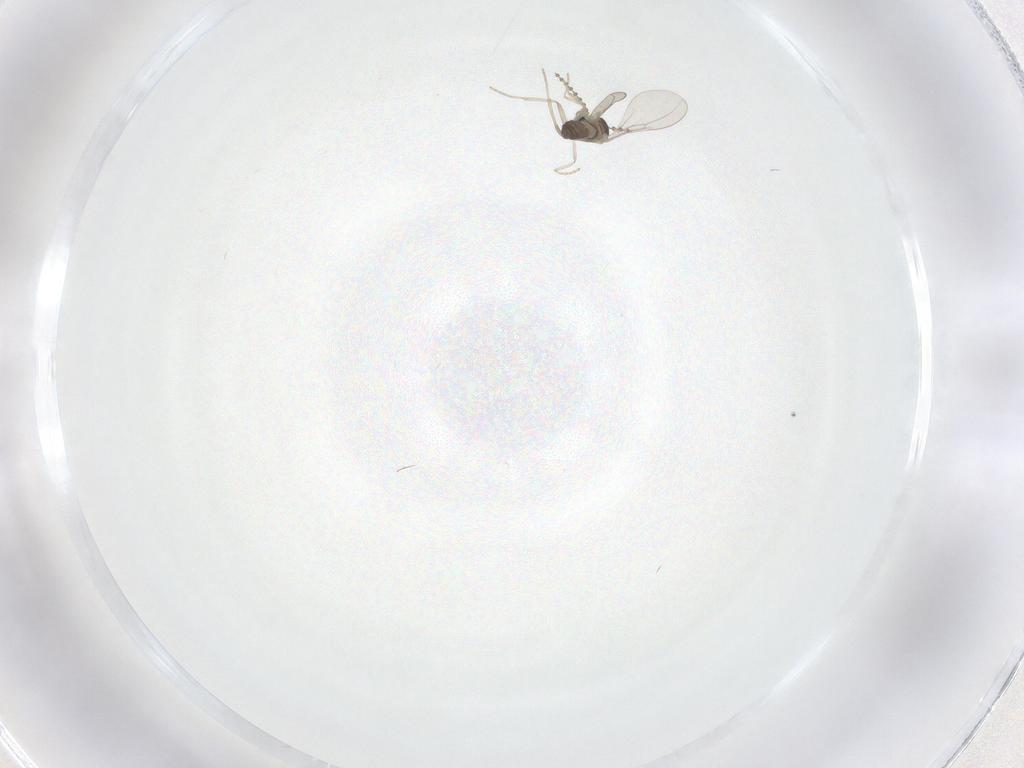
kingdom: Animalia
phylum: Arthropoda
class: Insecta
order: Diptera
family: Cecidomyiidae
